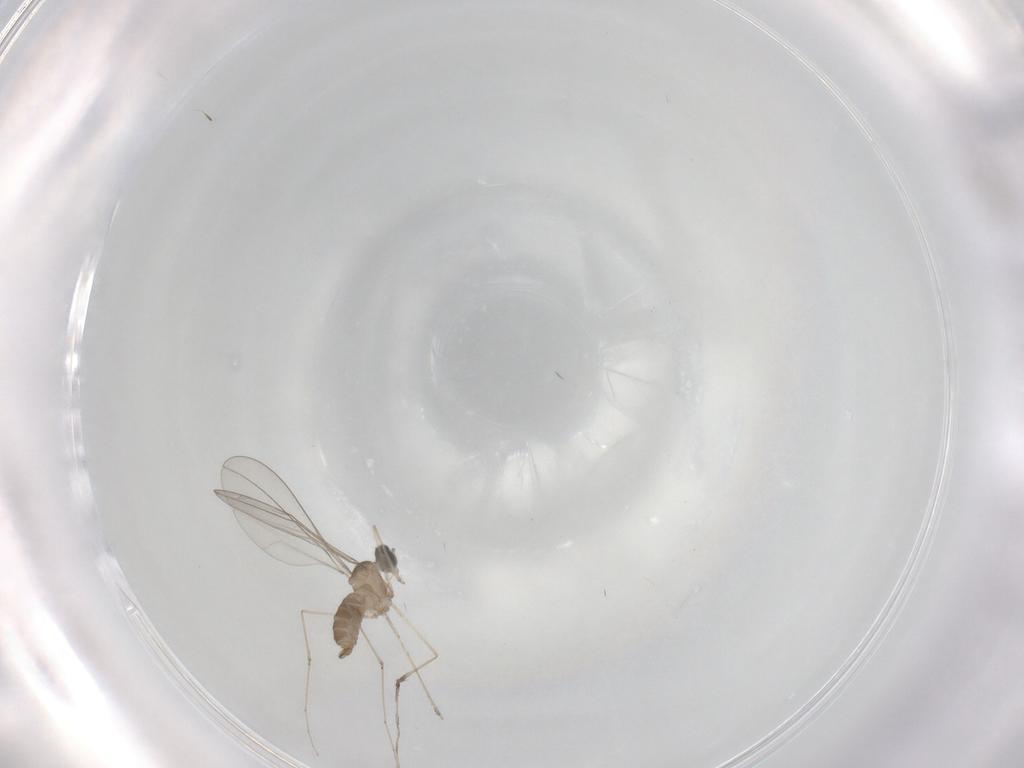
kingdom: Animalia
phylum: Arthropoda
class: Insecta
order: Diptera
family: Cecidomyiidae
